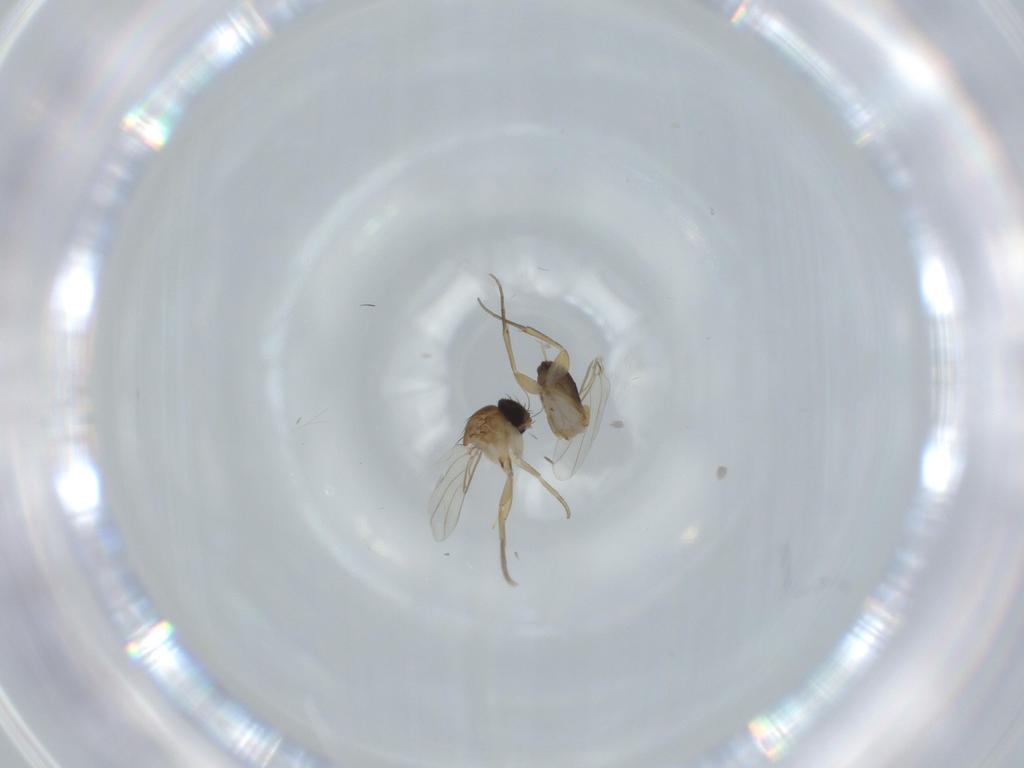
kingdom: Animalia
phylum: Arthropoda
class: Insecta
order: Diptera
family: Phoridae
